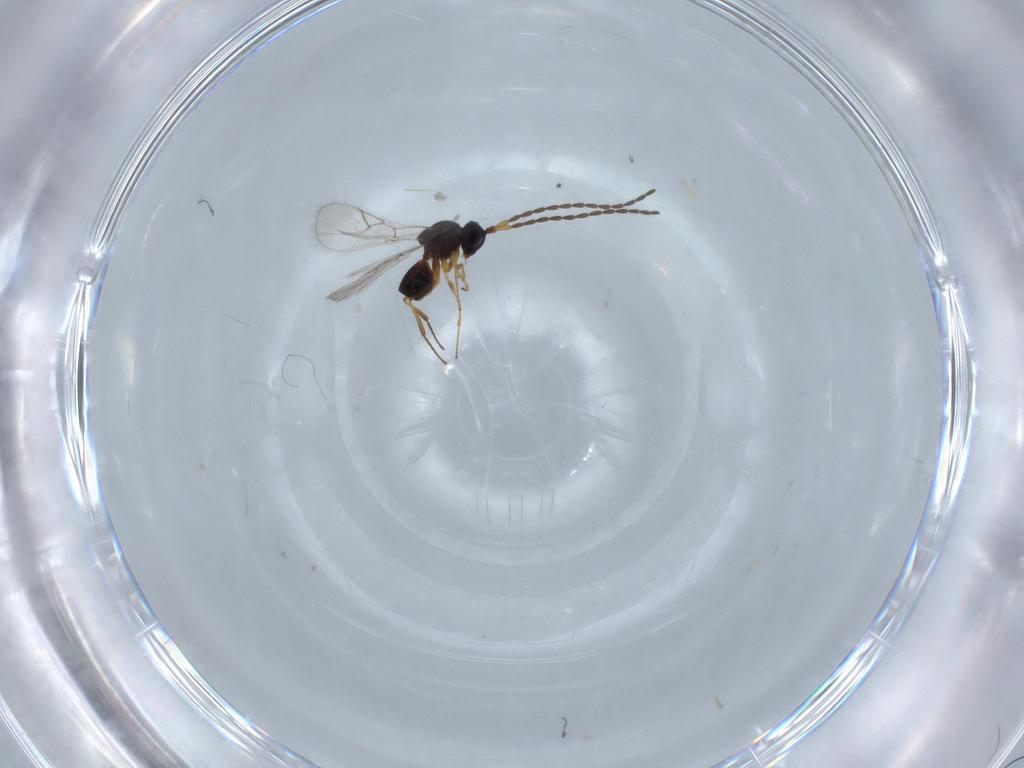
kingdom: Animalia
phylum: Arthropoda
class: Insecta
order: Hymenoptera
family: Figitidae
